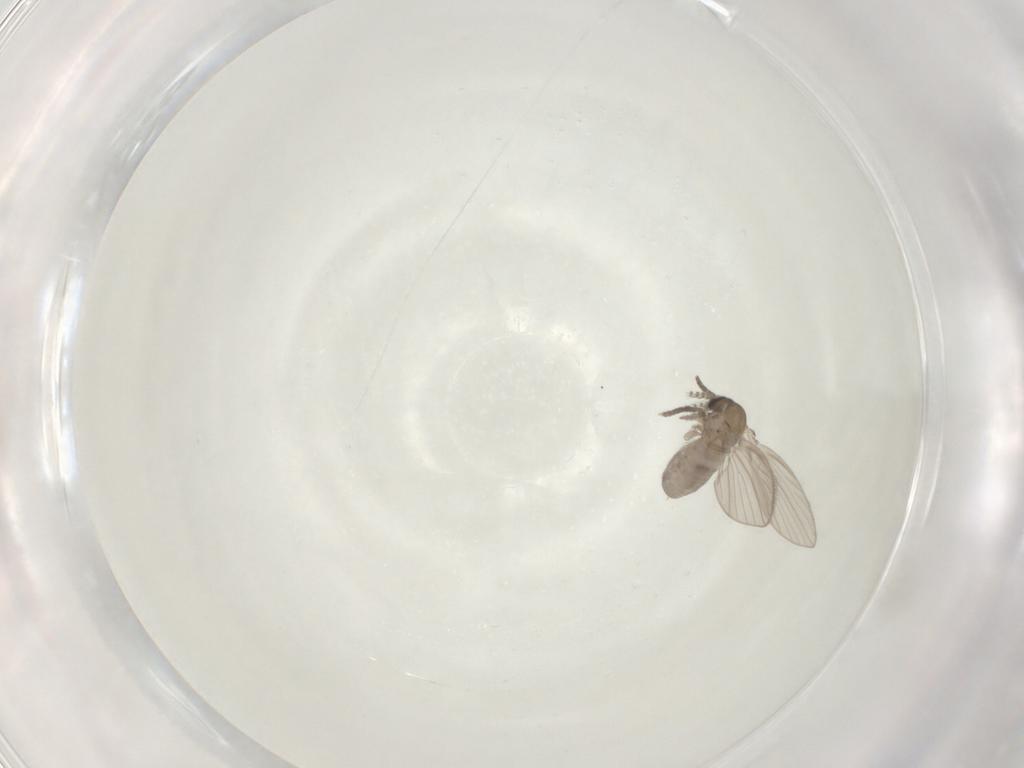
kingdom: Animalia
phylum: Arthropoda
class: Insecta
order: Diptera
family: Psychodidae
